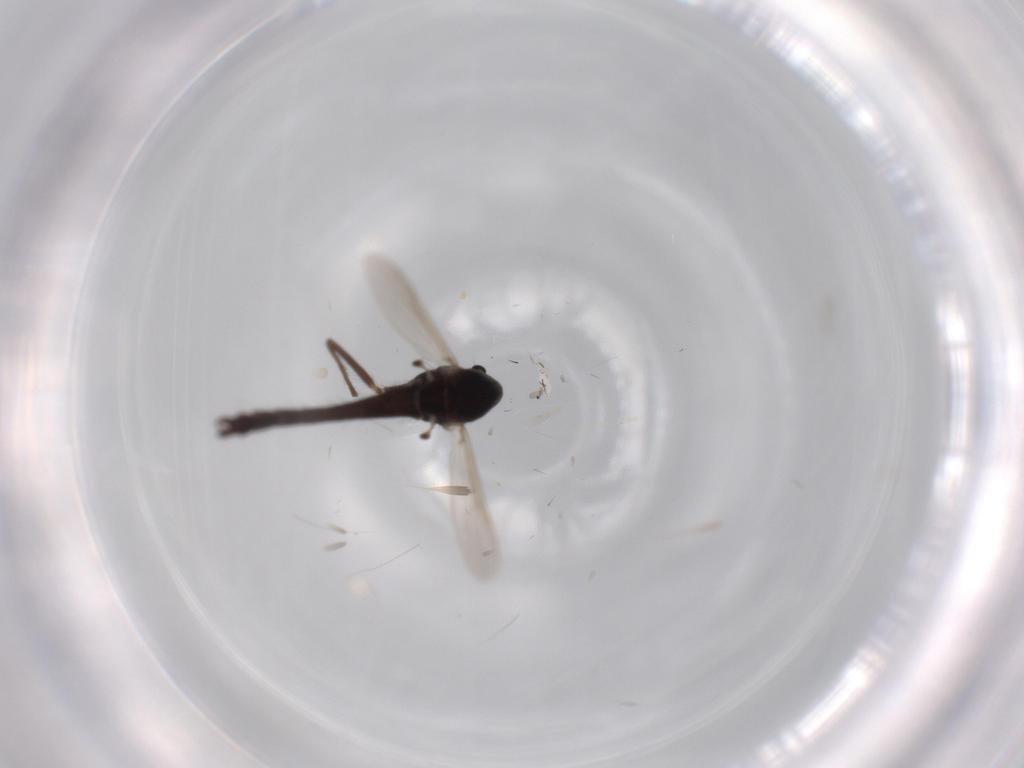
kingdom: Animalia
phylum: Arthropoda
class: Insecta
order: Diptera
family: Chironomidae
